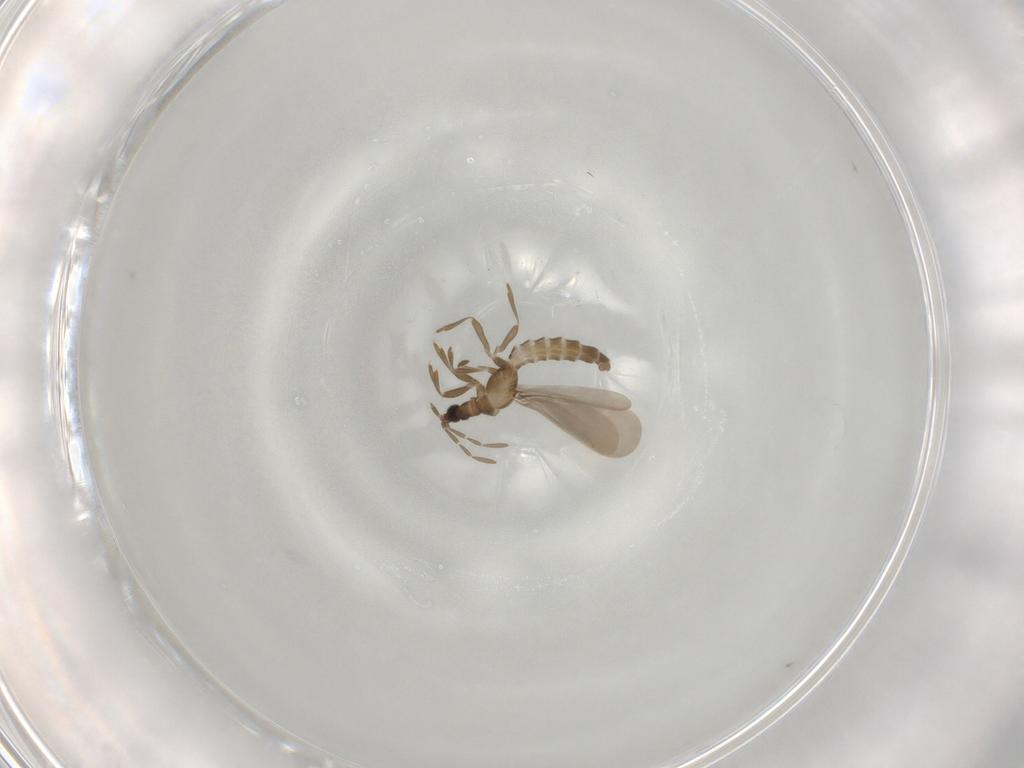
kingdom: Animalia
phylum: Arthropoda
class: Insecta
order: Hemiptera
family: Enicocephalidae
